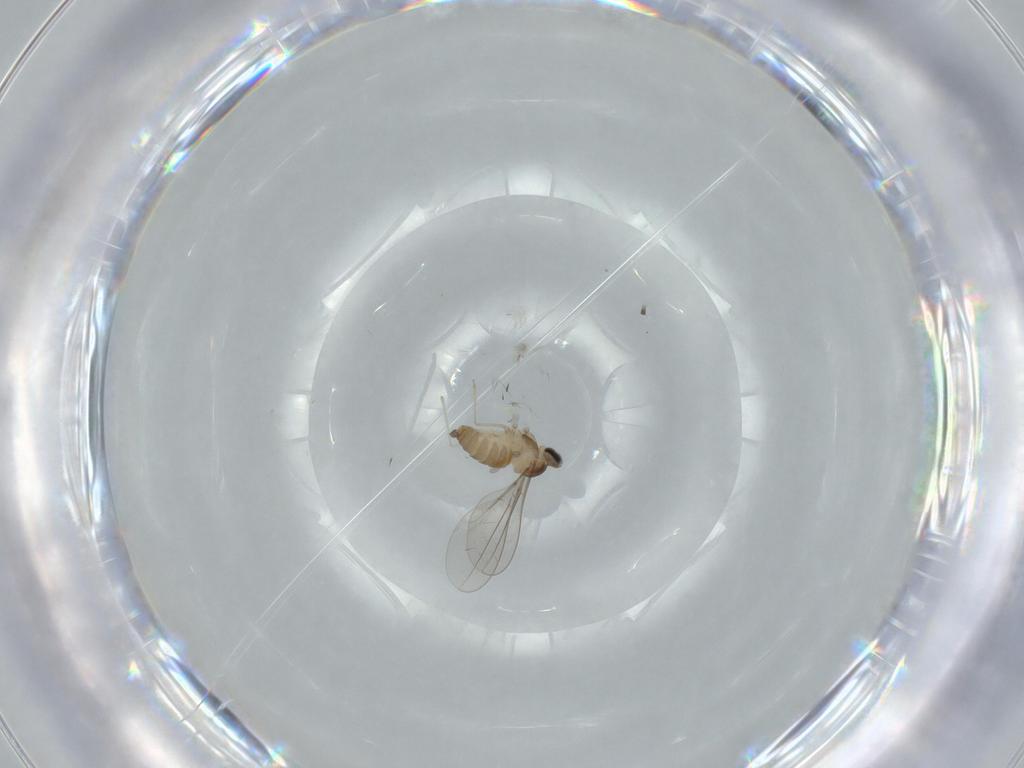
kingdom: Animalia
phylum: Arthropoda
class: Insecta
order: Diptera
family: Cecidomyiidae
